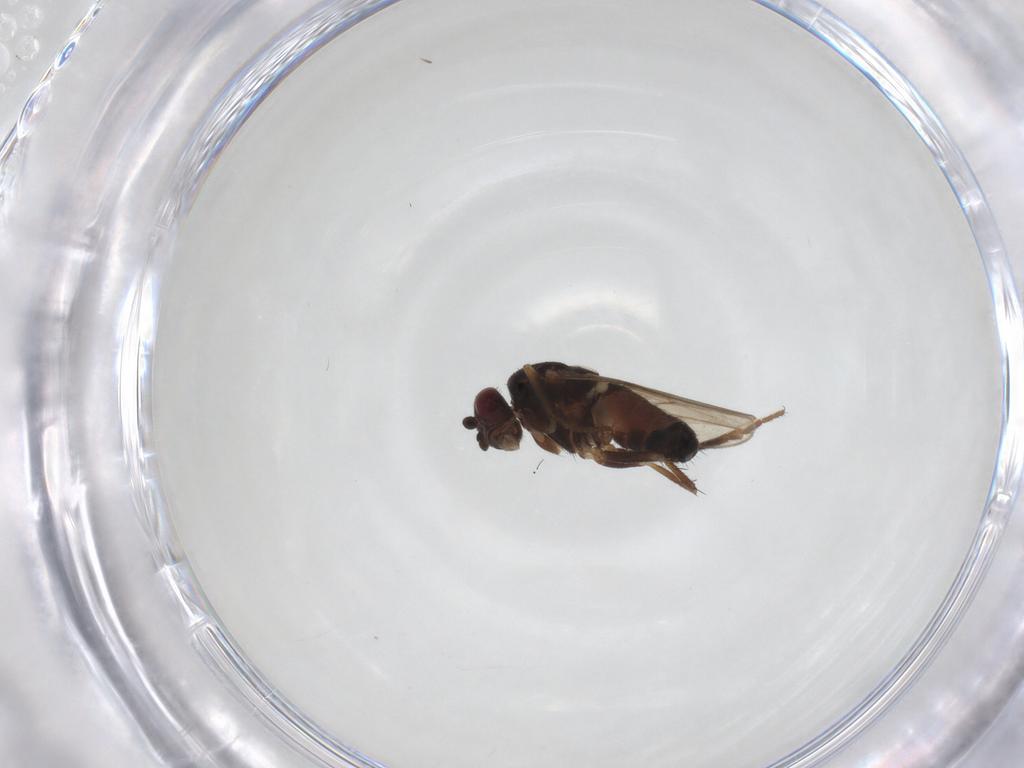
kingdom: Animalia
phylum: Arthropoda
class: Insecta
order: Diptera
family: Sphaeroceridae
